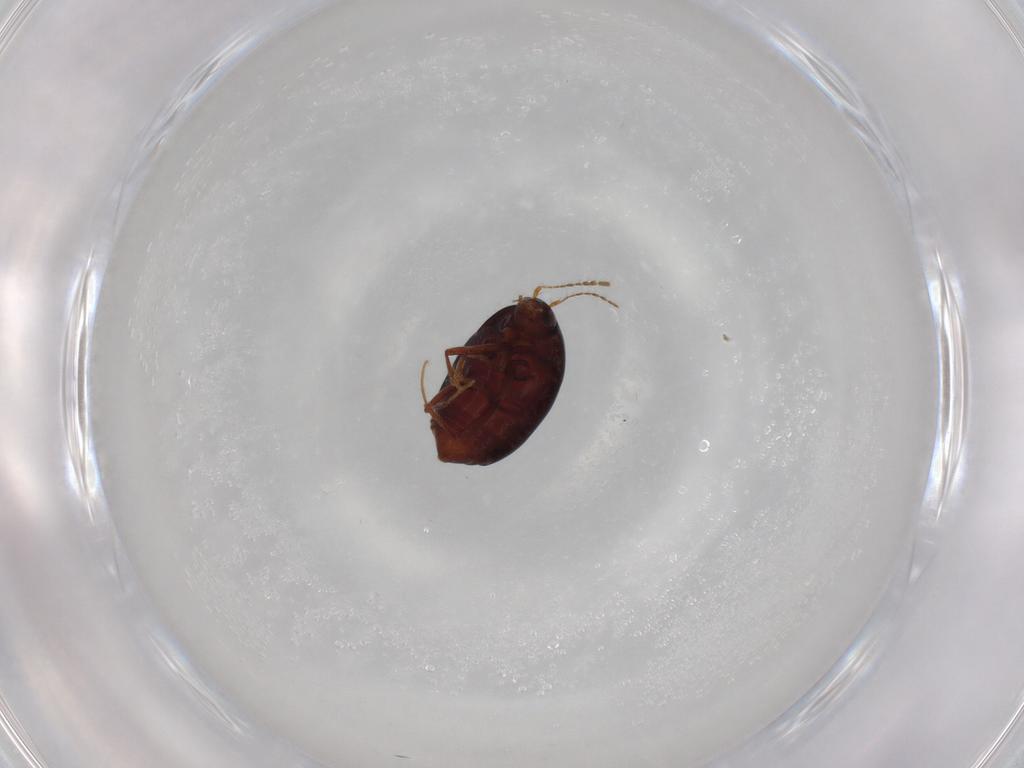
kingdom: Animalia
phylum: Arthropoda
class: Insecta
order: Coleoptera
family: Staphylinidae
